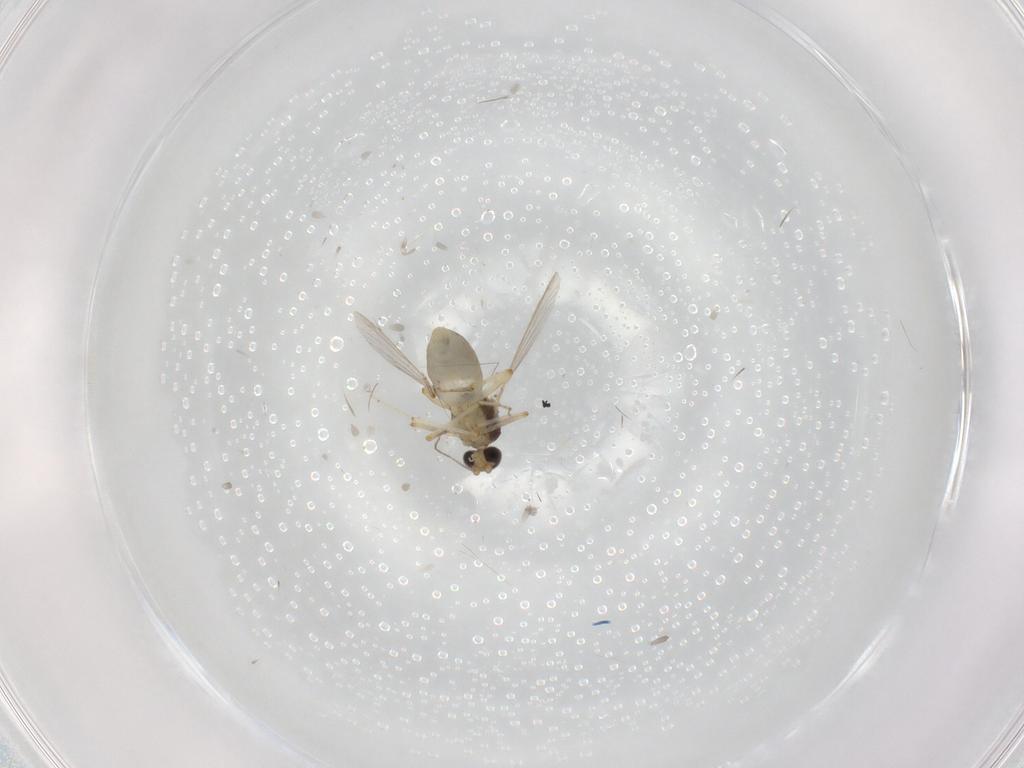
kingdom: Animalia
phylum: Arthropoda
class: Insecta
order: Diptera
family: Ceratopogonidae
